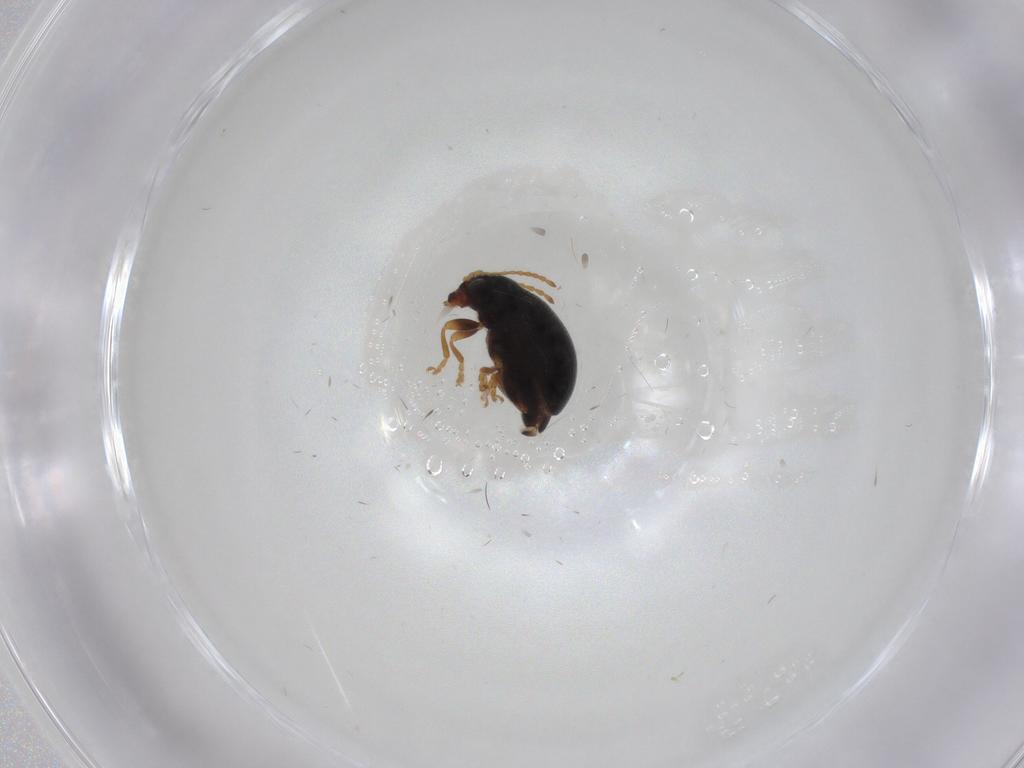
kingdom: Animalia
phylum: Arthropoda
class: Insecta
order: Coleoptera
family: Chrysomelidae
